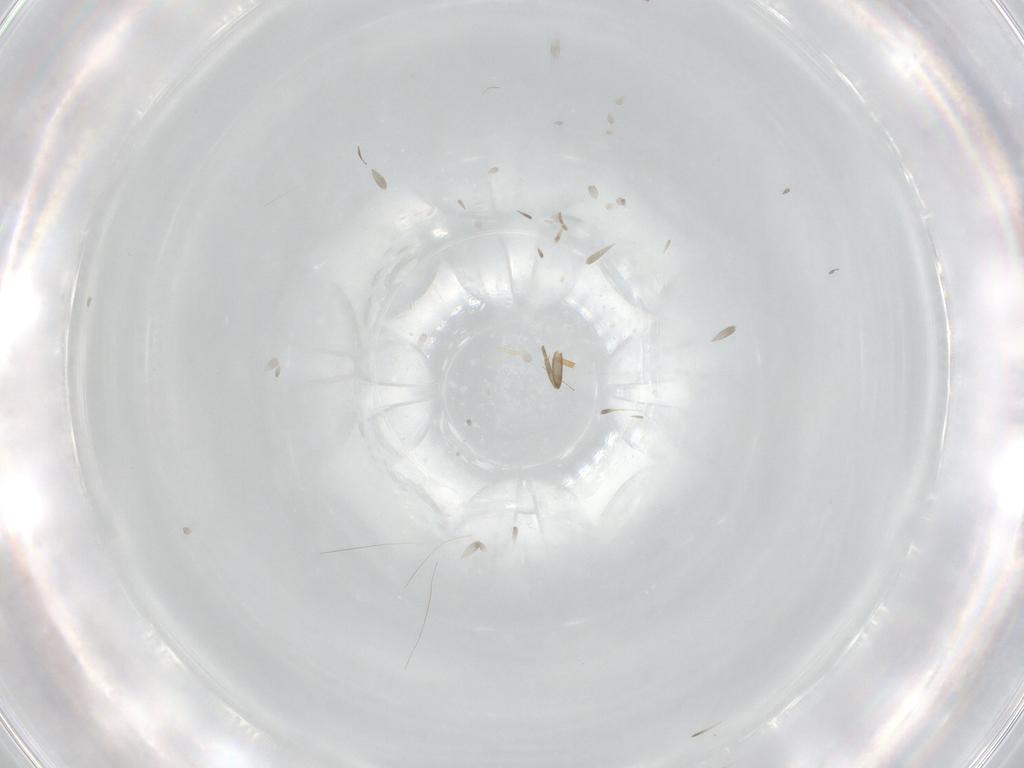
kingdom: Animalia
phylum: Arthropoda
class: Insecta
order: Diptera
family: Phoridae
